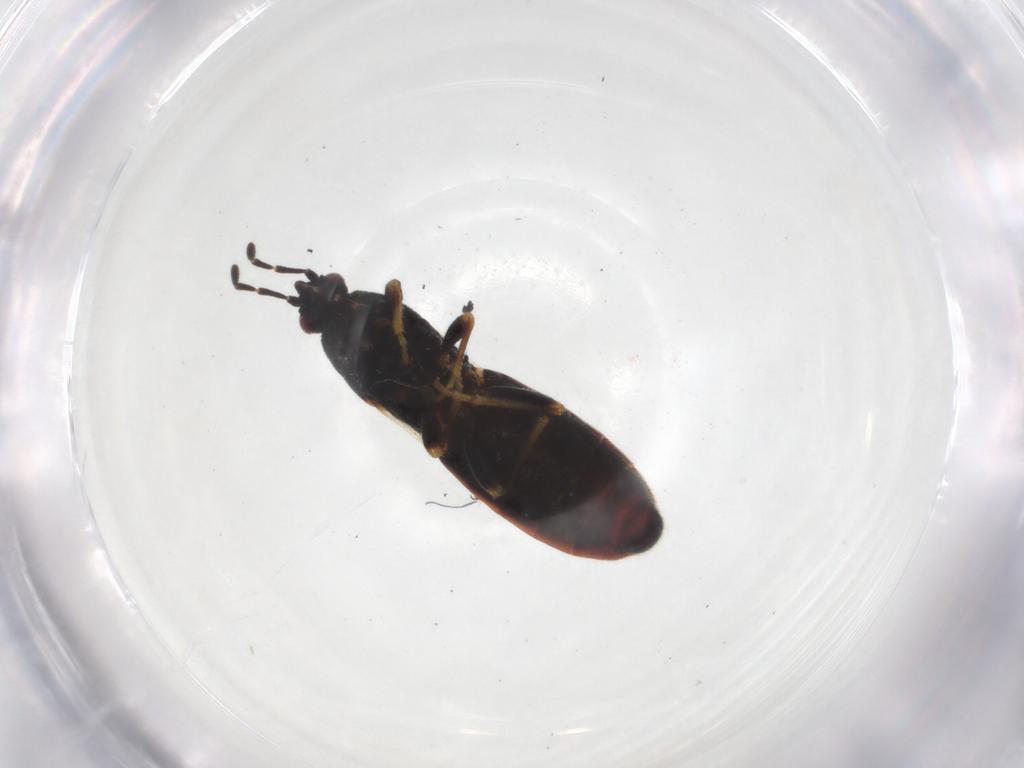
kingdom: Animalia
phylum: Arthropoda
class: Insecta
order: Hemiptera
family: Blissidae
